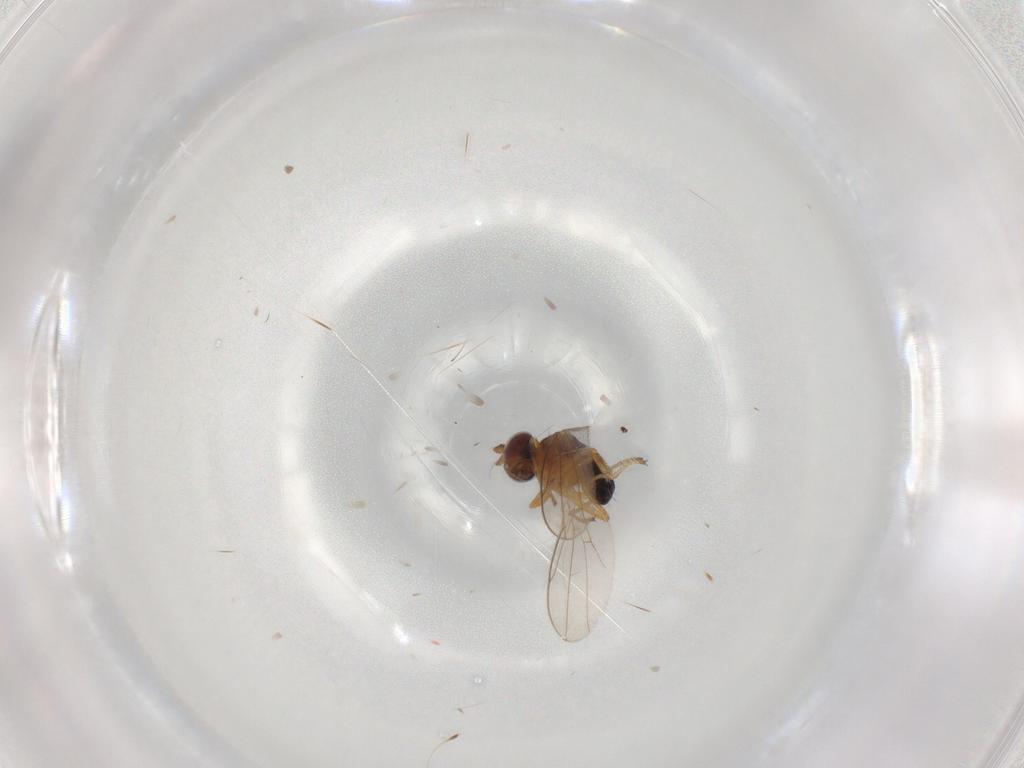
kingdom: Animalia
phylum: Arthropoda
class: Insecta
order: Diptera
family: Ephydridae
